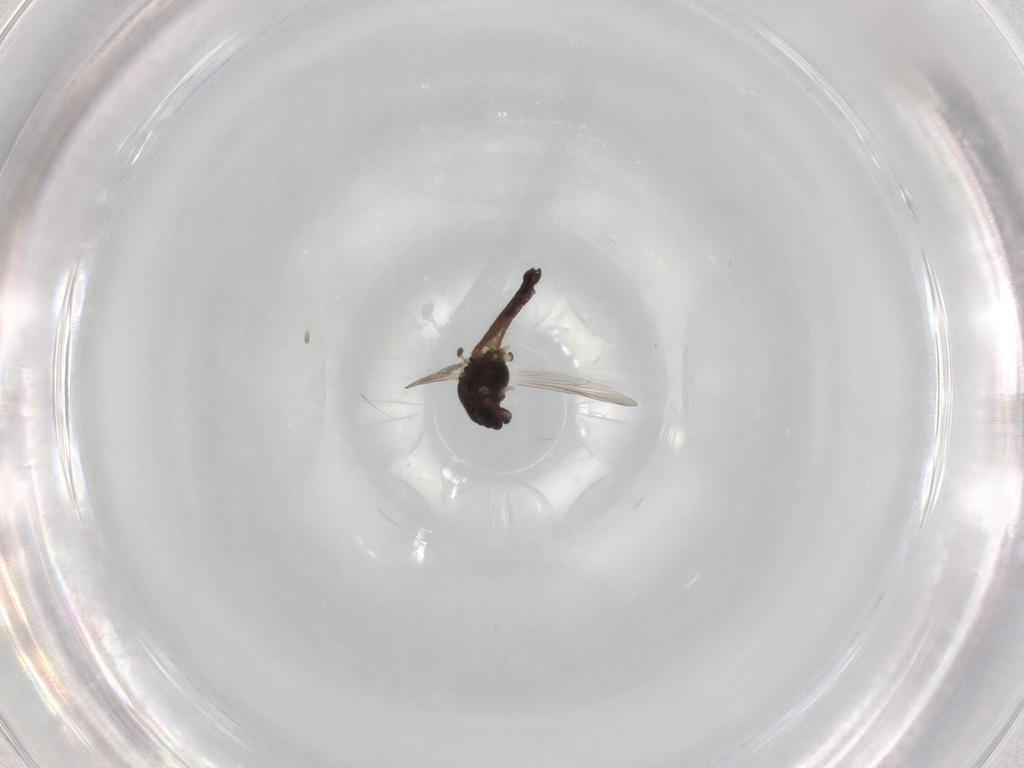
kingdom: Animalia
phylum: Arthropoda
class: Insecta
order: Diptera
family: Chironomidae
